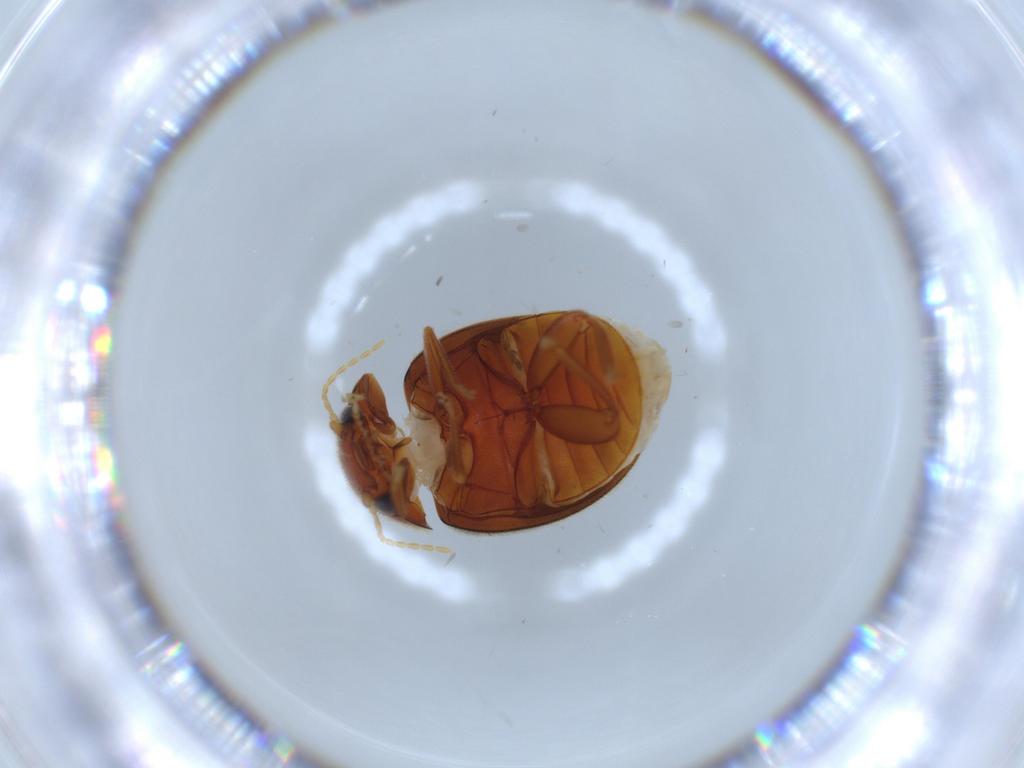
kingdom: Animalia
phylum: Arthropoda
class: Insecta
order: Coleoptera
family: Scirtidae
